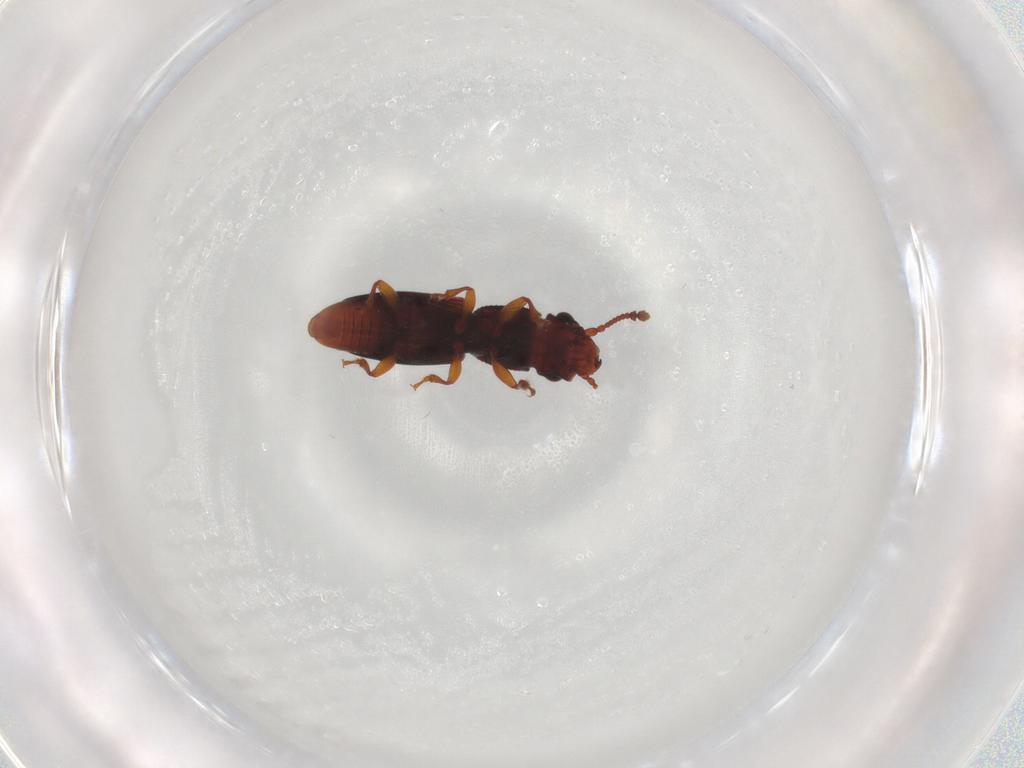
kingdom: Animalia
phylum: Arthropoda
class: Insecta
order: Coleoptera
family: Monotomidae
